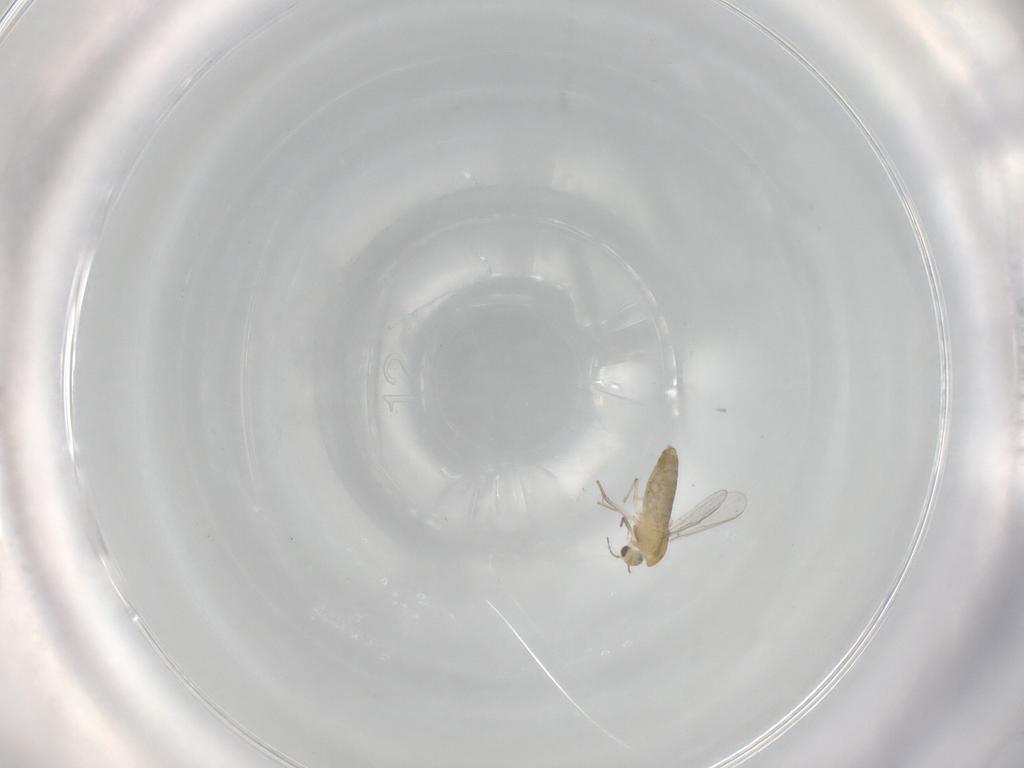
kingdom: Animalia
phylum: Arthropoda
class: Insecta
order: Diptera
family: Chironomidae
